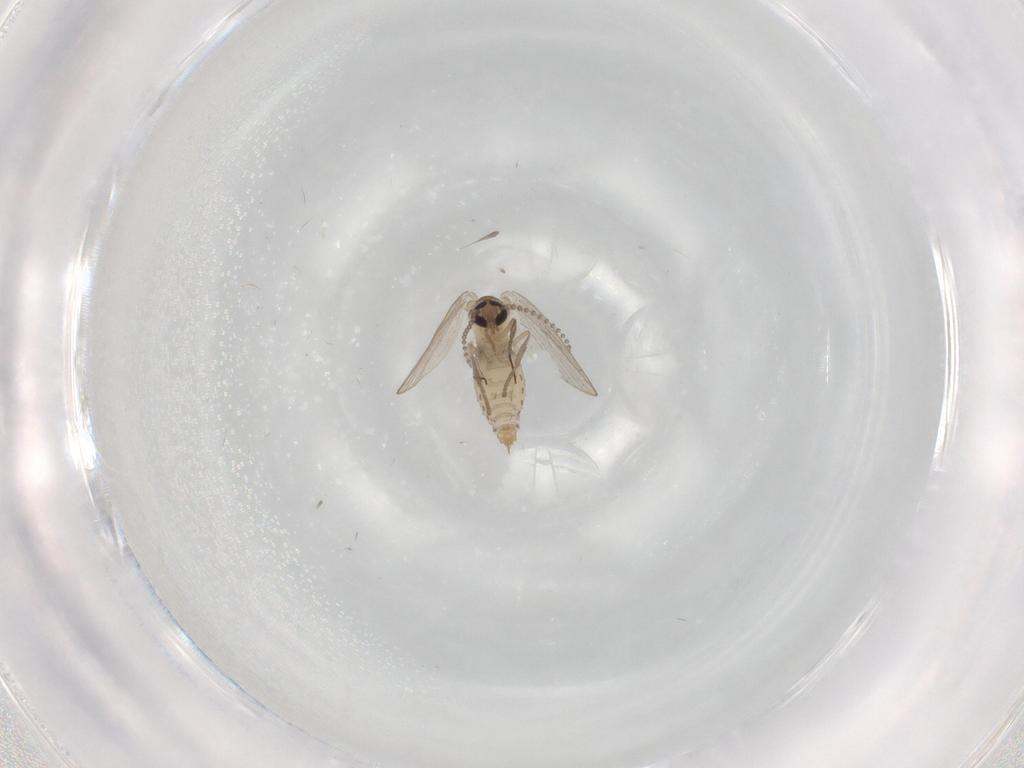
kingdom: Animalia
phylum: Arthropoda
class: Insecta
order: Diptera
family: Psychodidae
